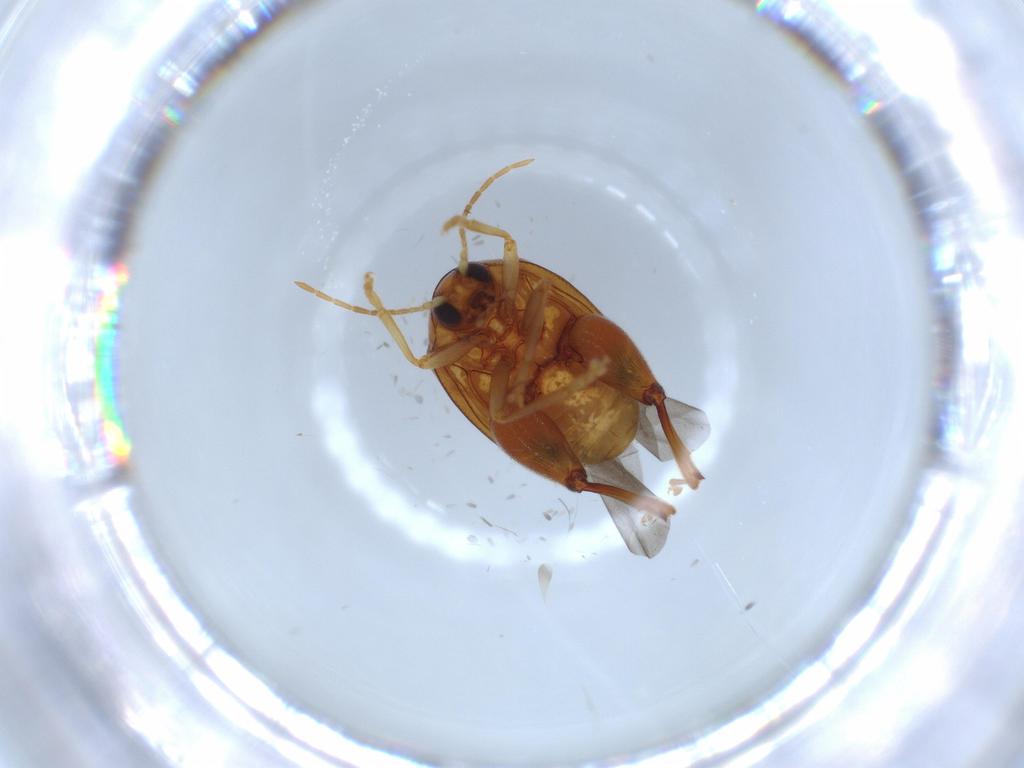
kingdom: Animalia
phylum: Arthropoda
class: Insecta
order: Coleoptera
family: Chrysomelidae
